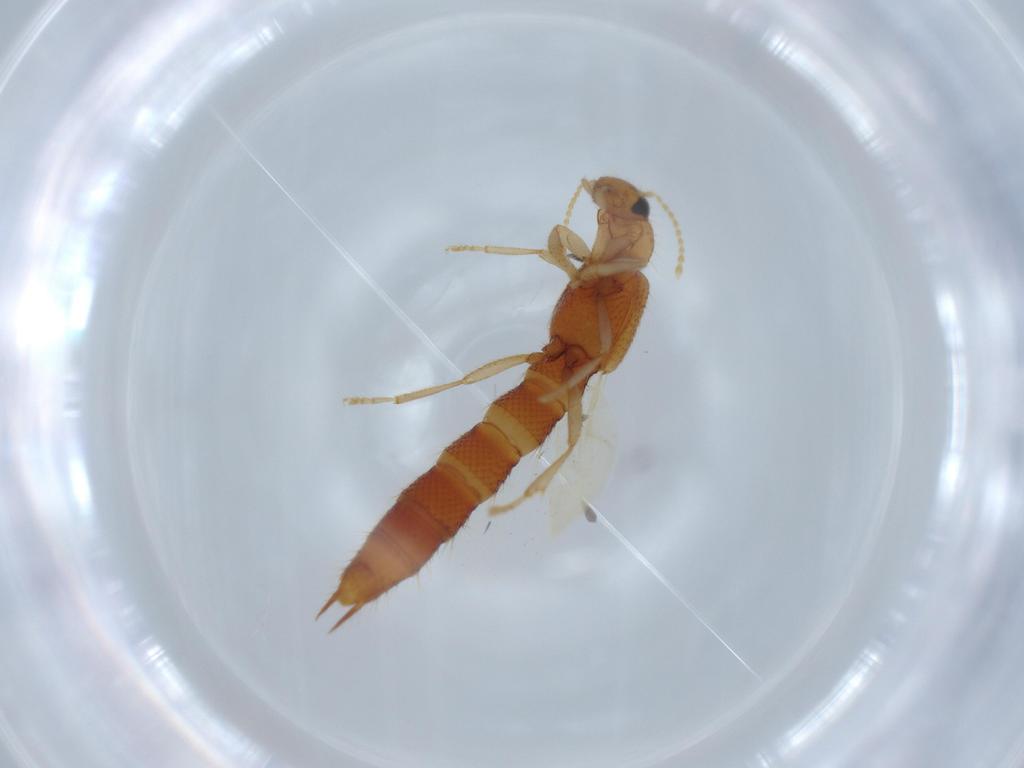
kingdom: Animalia
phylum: Arthropoda
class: Insecta
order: Coleoptera
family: Staphylinidae
